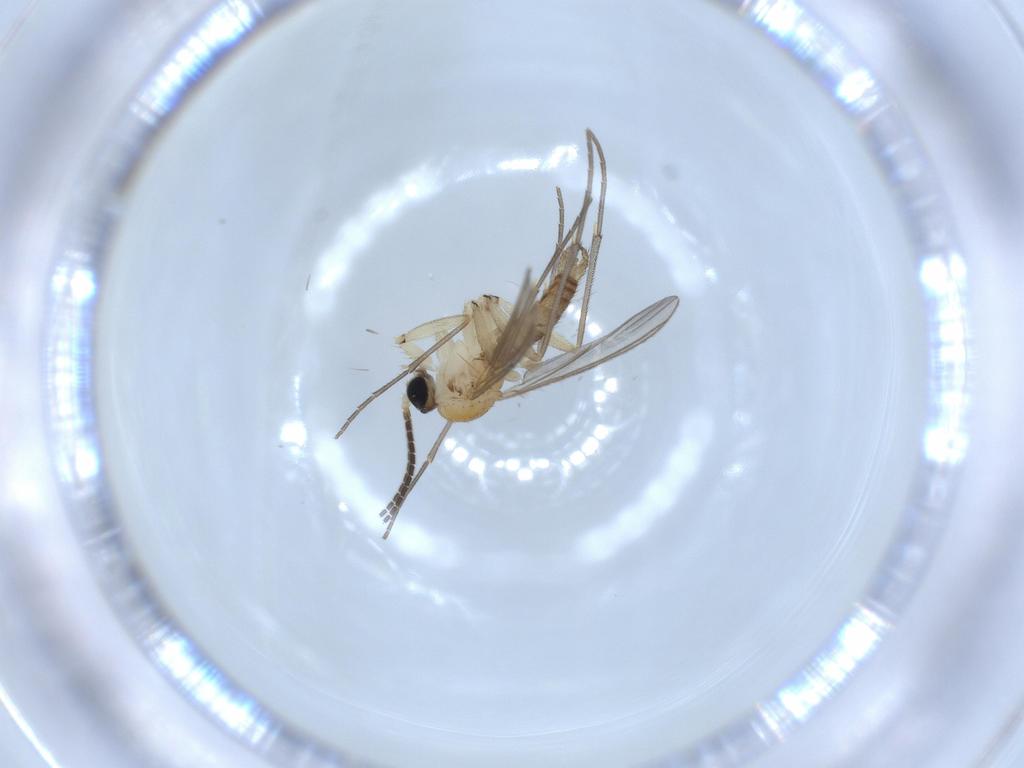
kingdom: Animalia
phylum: Arthropoda
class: Insecta
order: Diptera
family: Sciaridae
